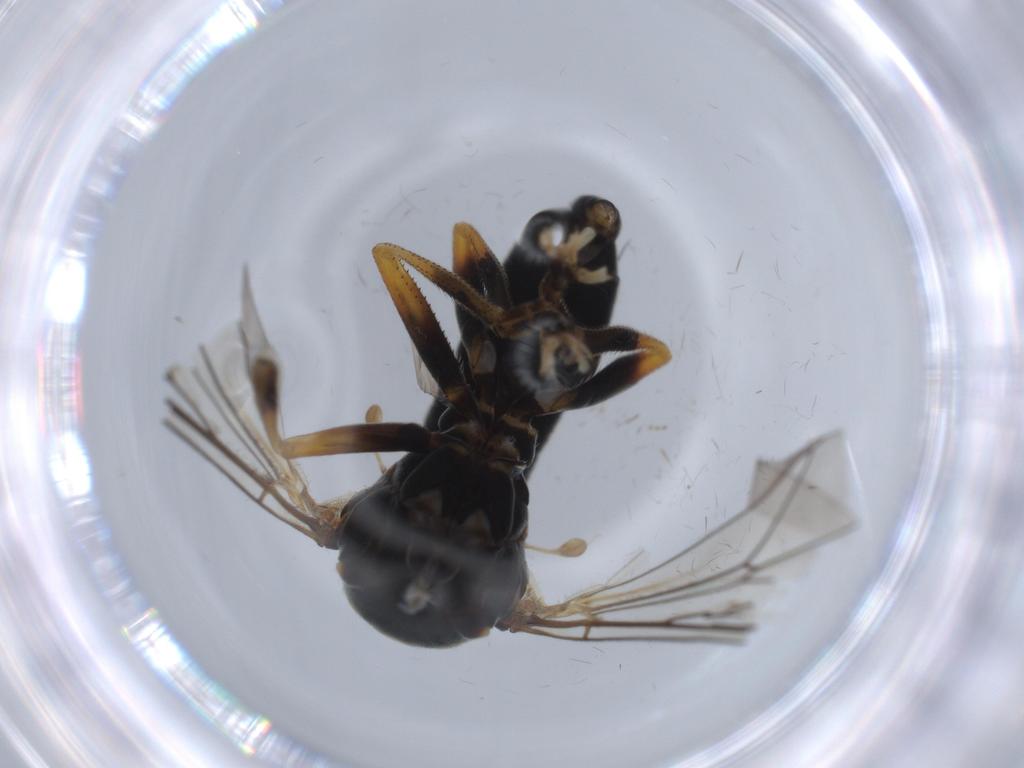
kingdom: Animalia
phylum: Arthropoda
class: Insecta
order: Diptera
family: Pipunculidae
